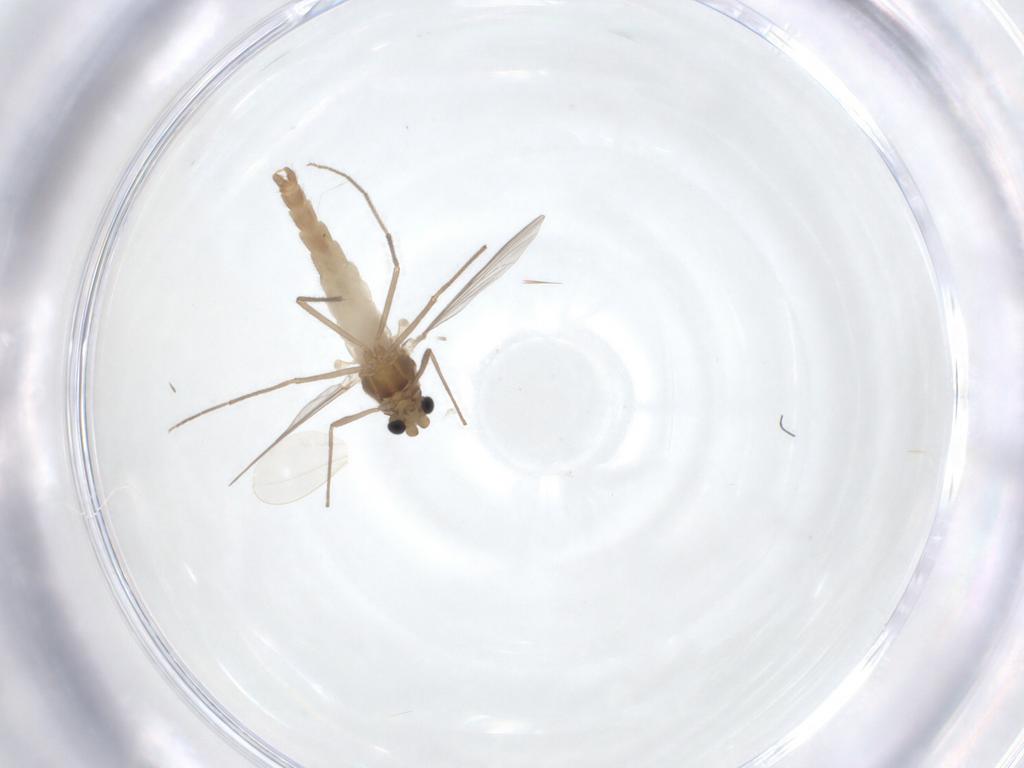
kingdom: Animalia
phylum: Arthropoda
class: Insecta
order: Diptera
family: Chironomidae
